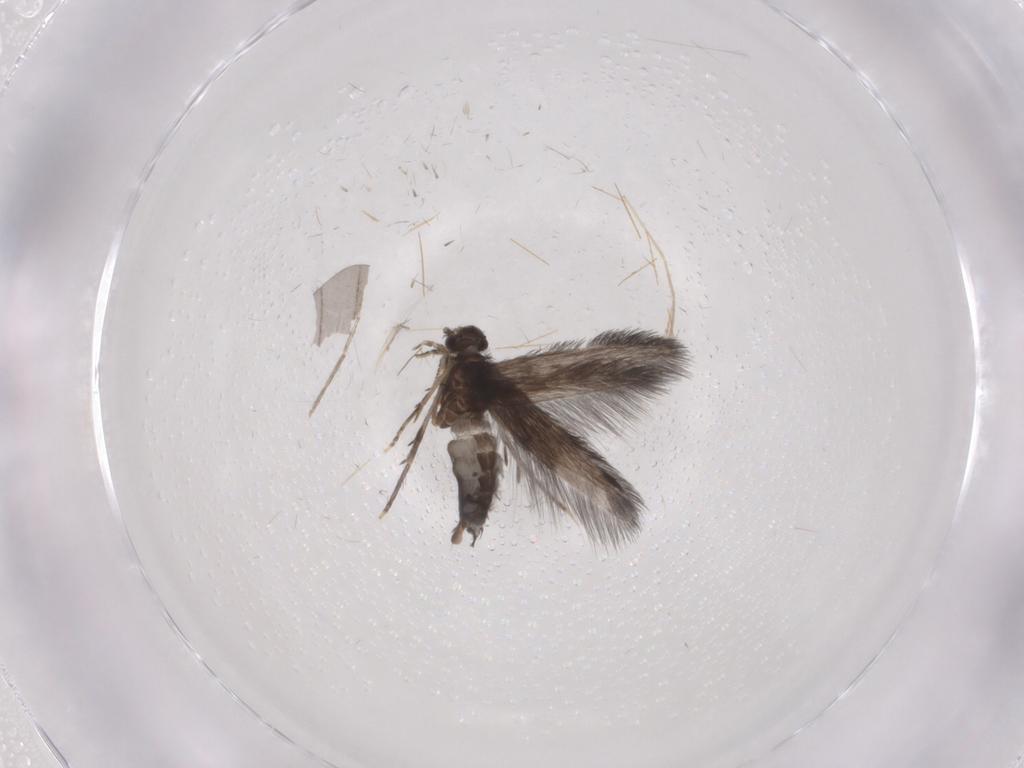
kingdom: Animalia
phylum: Arthropoda
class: Insecta
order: Trichoptera
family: Hydroptilidae
